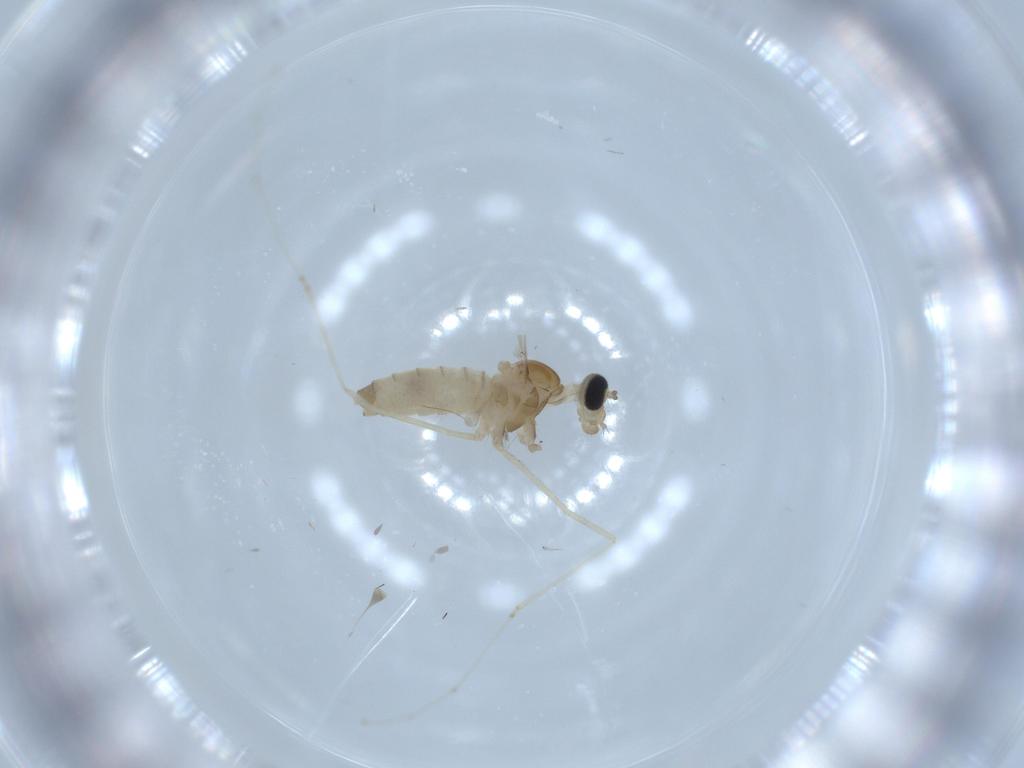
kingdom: Animalia
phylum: Arthropoda
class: Insecta
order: Diptera
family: Cecidomyiidae
